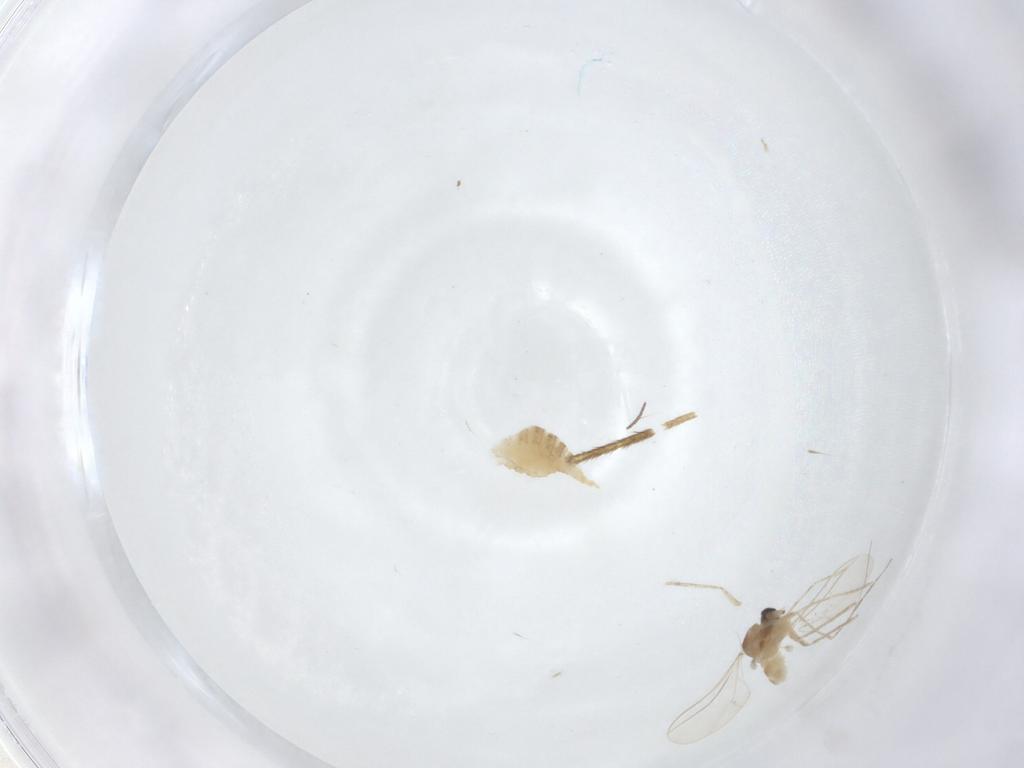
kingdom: Animalia
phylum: Arthropoda
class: Insecta
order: Diptera
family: Culicidae
